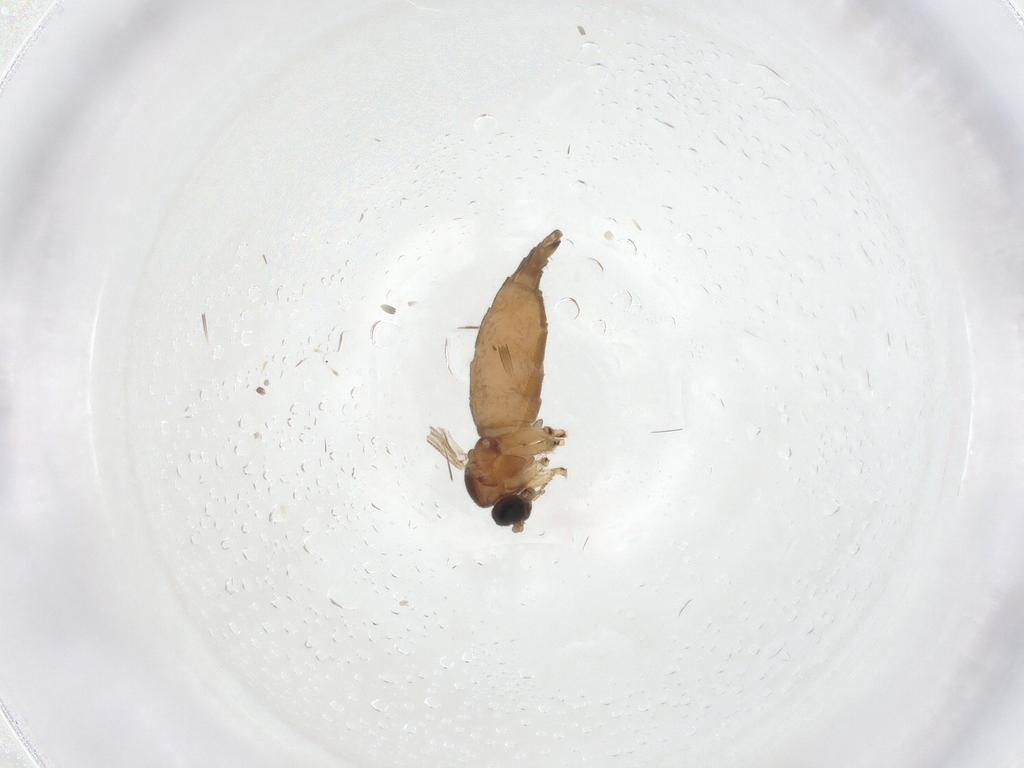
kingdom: Animalia
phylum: Arthropoda
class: Insecta
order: Diptera
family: Sciaridae
